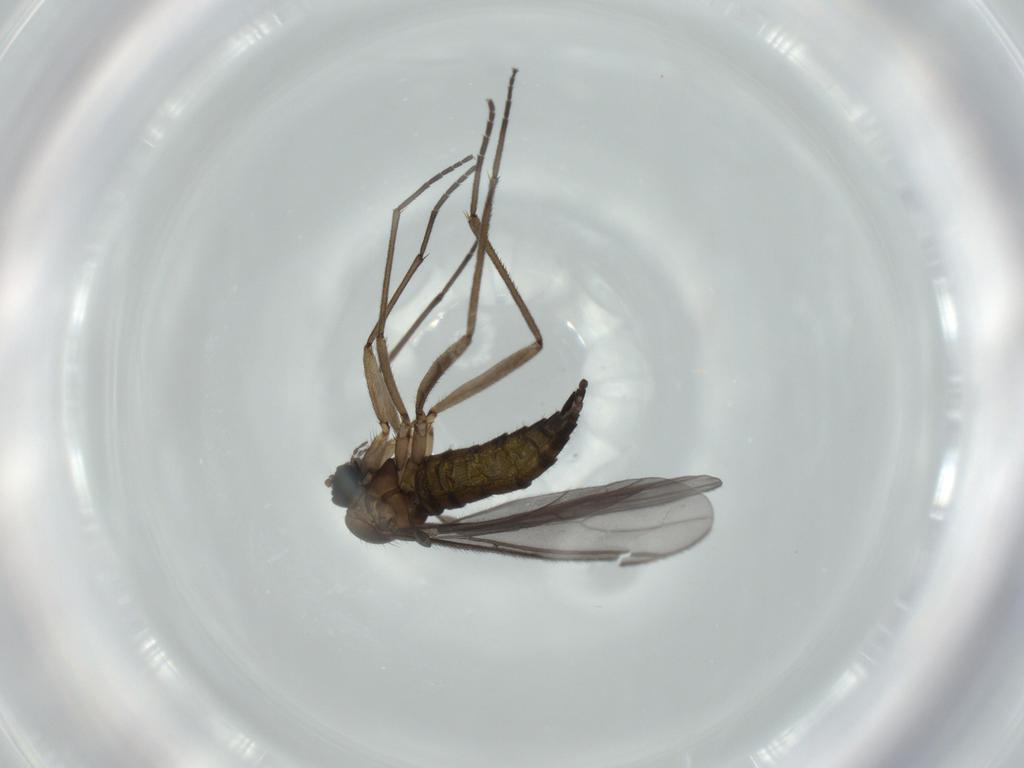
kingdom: Animalia
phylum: Arthropoda
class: Insecta
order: Diptera
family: Sciaridae
